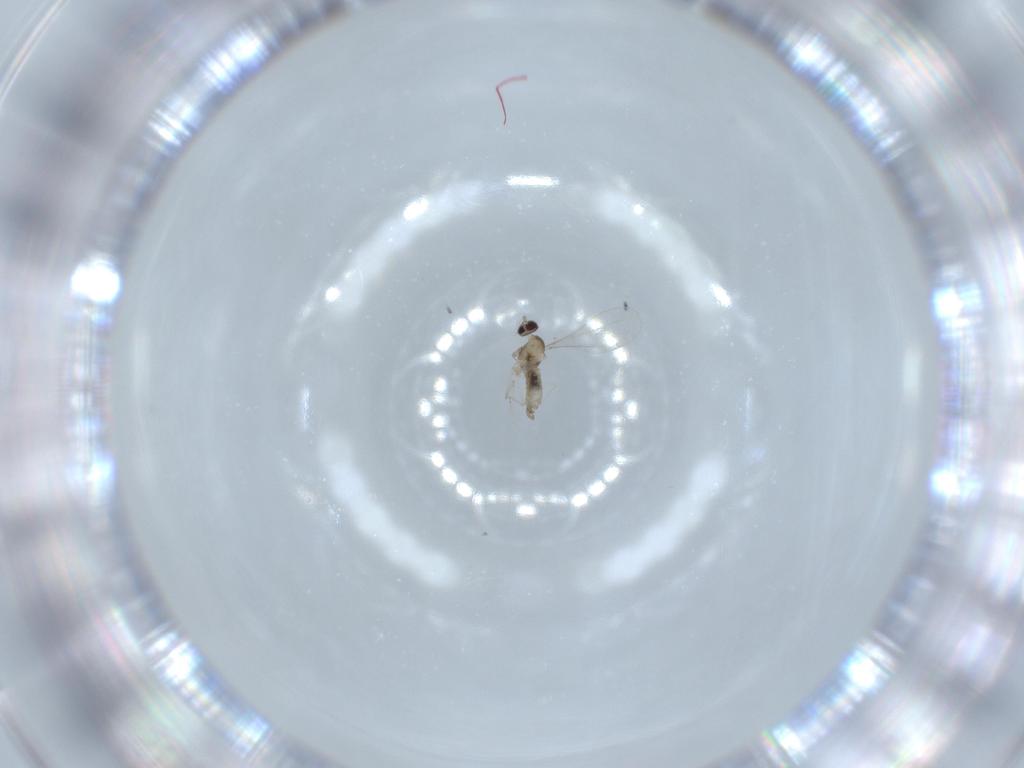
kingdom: Animalia
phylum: Arthropoda
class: Insecta
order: Diptera
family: Cecidomyiidae
